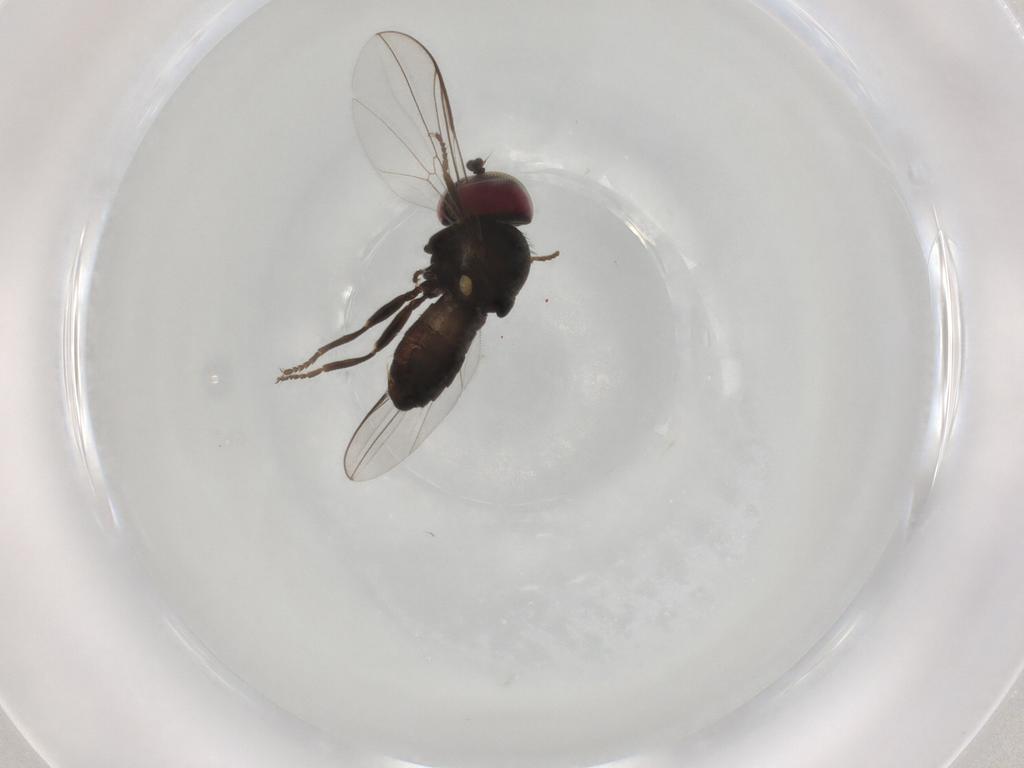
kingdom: Animalia
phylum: Arthropoda
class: Insecta
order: Diptera
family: Pipunculidae
